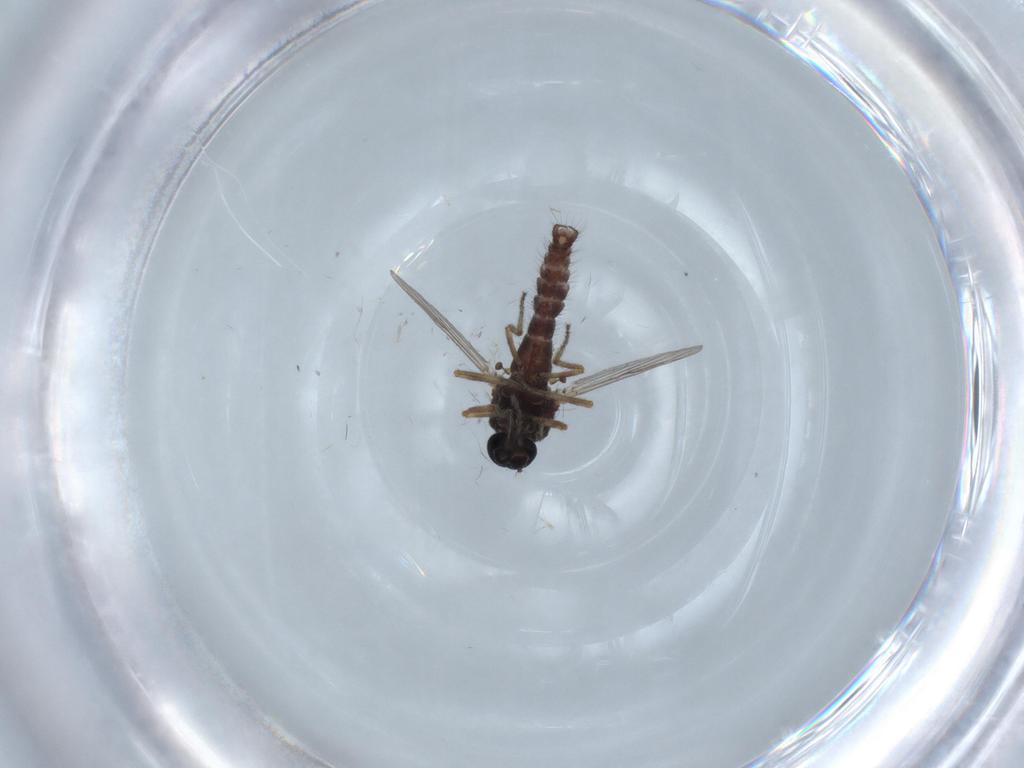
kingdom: Animalia
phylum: Arthropoda
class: Insecta
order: Diptera
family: Ceratopogonidae
